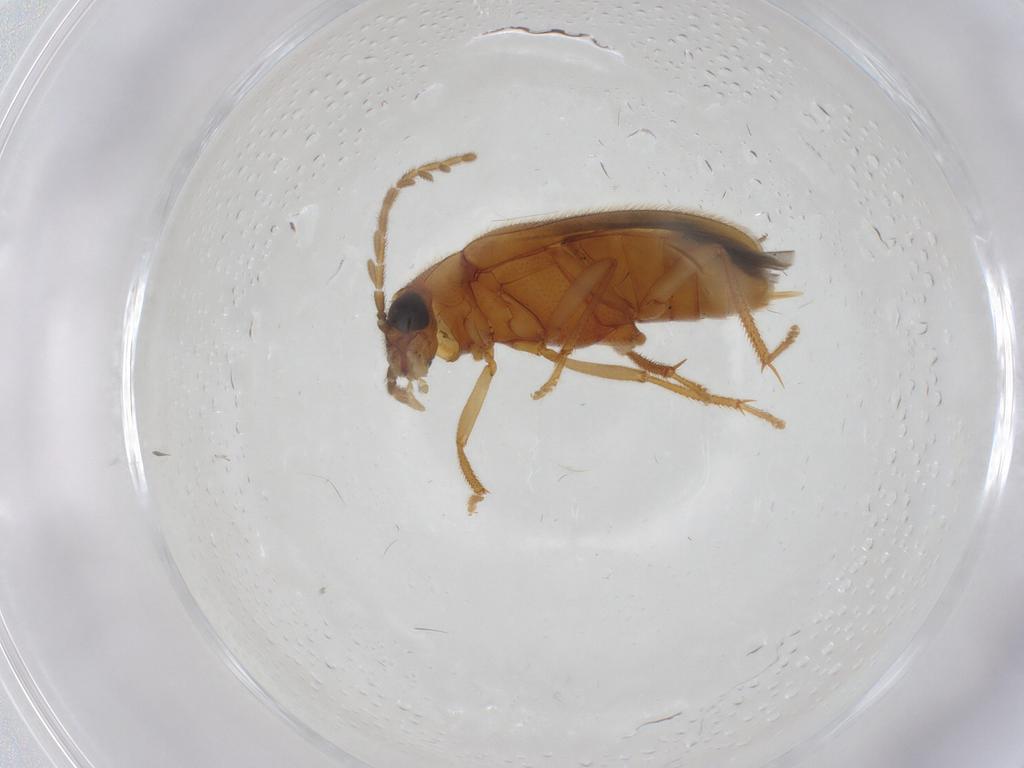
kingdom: Animalia
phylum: Arthropoda
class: Insecta
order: Coleoptera
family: Ptilodactylidae
